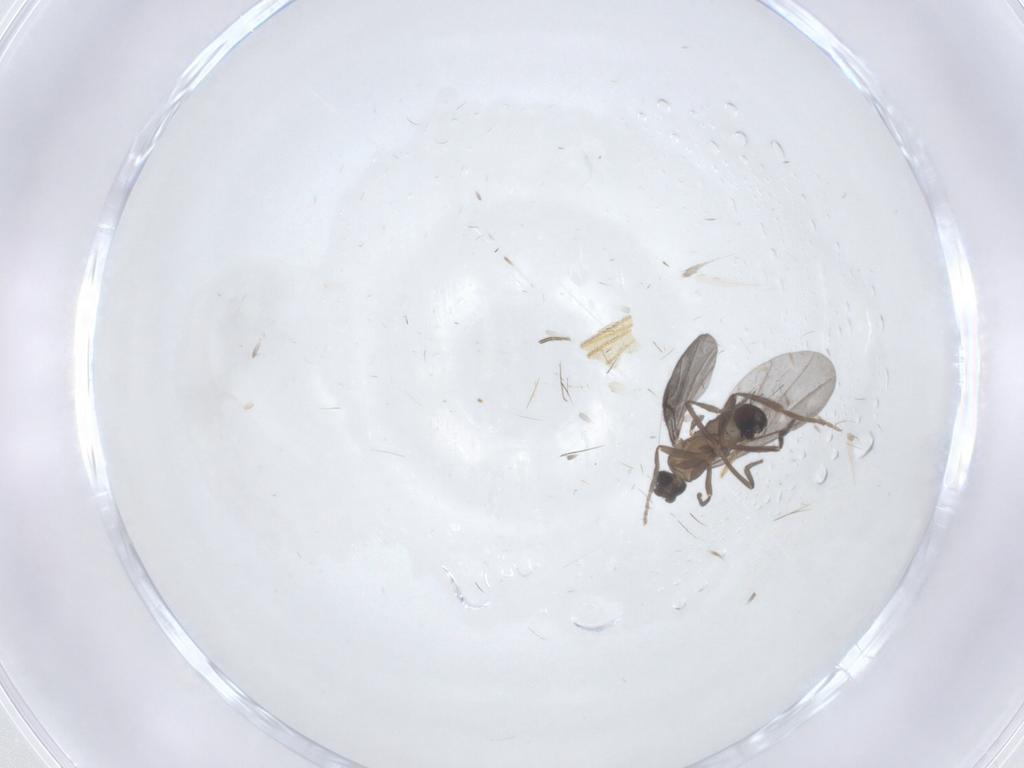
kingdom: Animalia
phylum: Arthropoda
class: Insecta
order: Diptera
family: Phoridae
